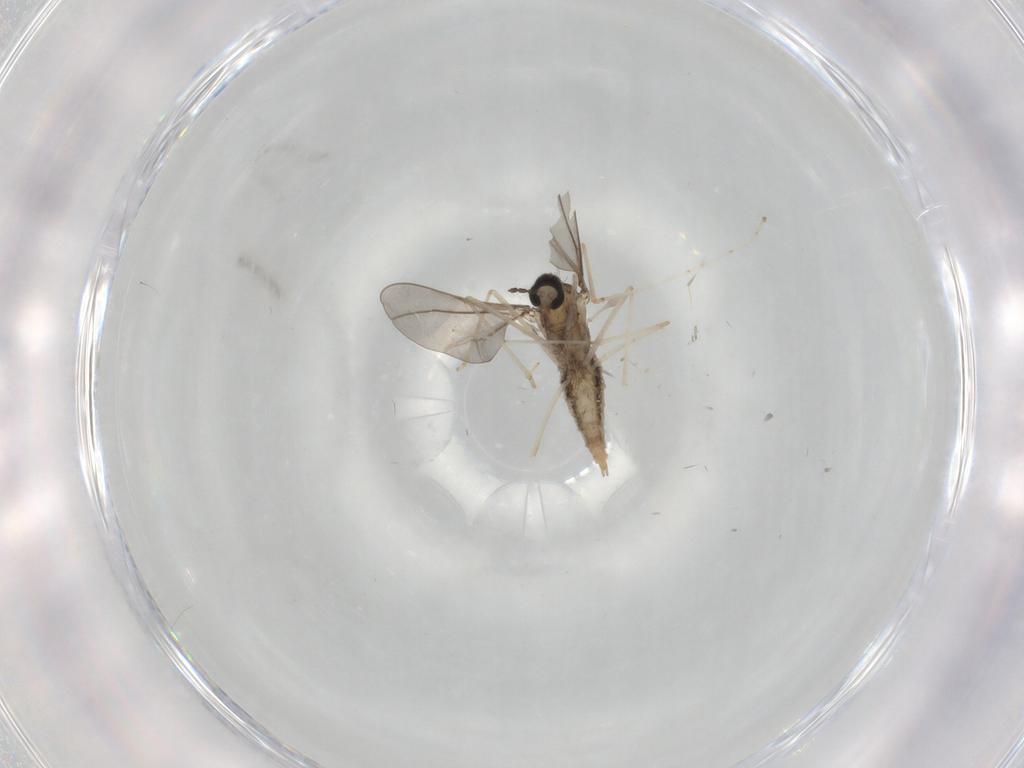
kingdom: Animalia
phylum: Arthropoda
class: Insecta
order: Diptera
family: Cecidomyiidae
